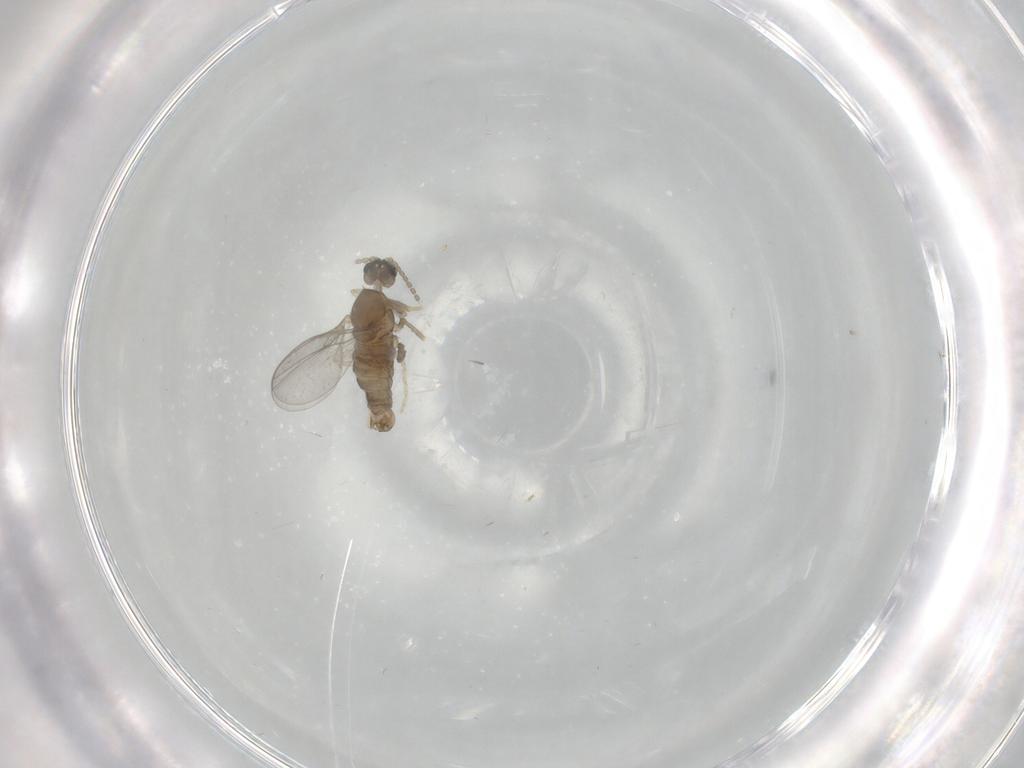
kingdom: Animalia
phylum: Arthropoda
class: Insecta
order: Diptera
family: Cecidomyiidae
